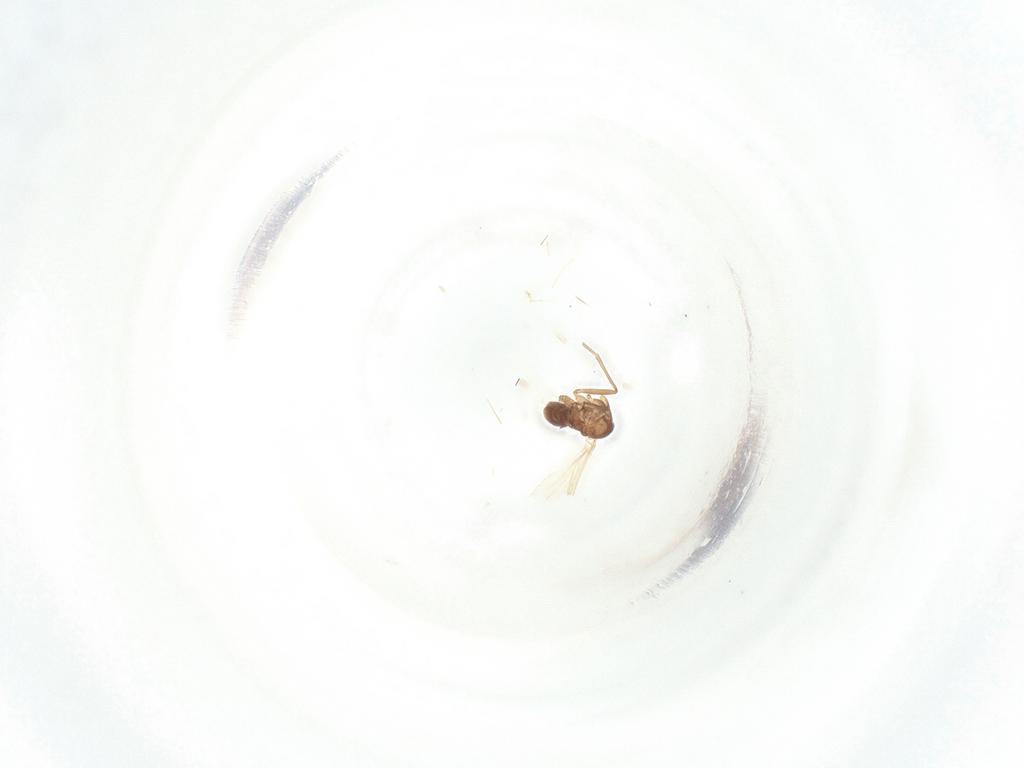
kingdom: Animalia
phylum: Arthropoda
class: Insecta
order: Diptera
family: Sciaridae
